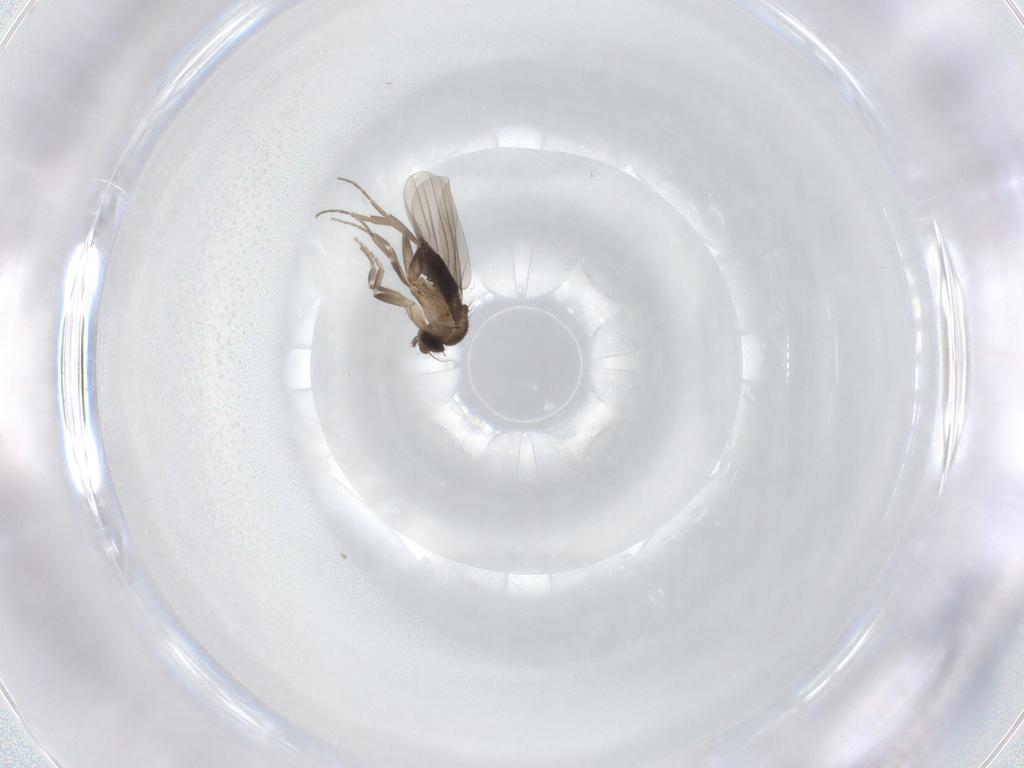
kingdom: Animalia
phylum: Arthropoda
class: Insecta
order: Diptera
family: Phoridae
